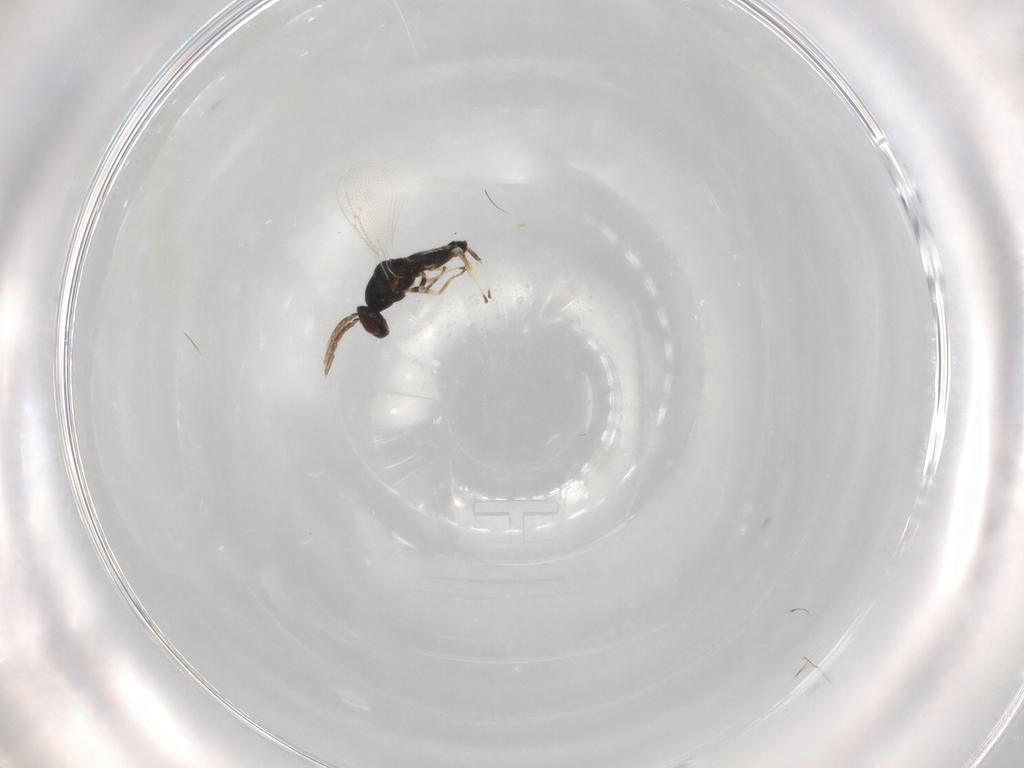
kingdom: Animalia
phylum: Arthropoda
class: Insecta
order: Hymenoptera
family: Eulophidae
